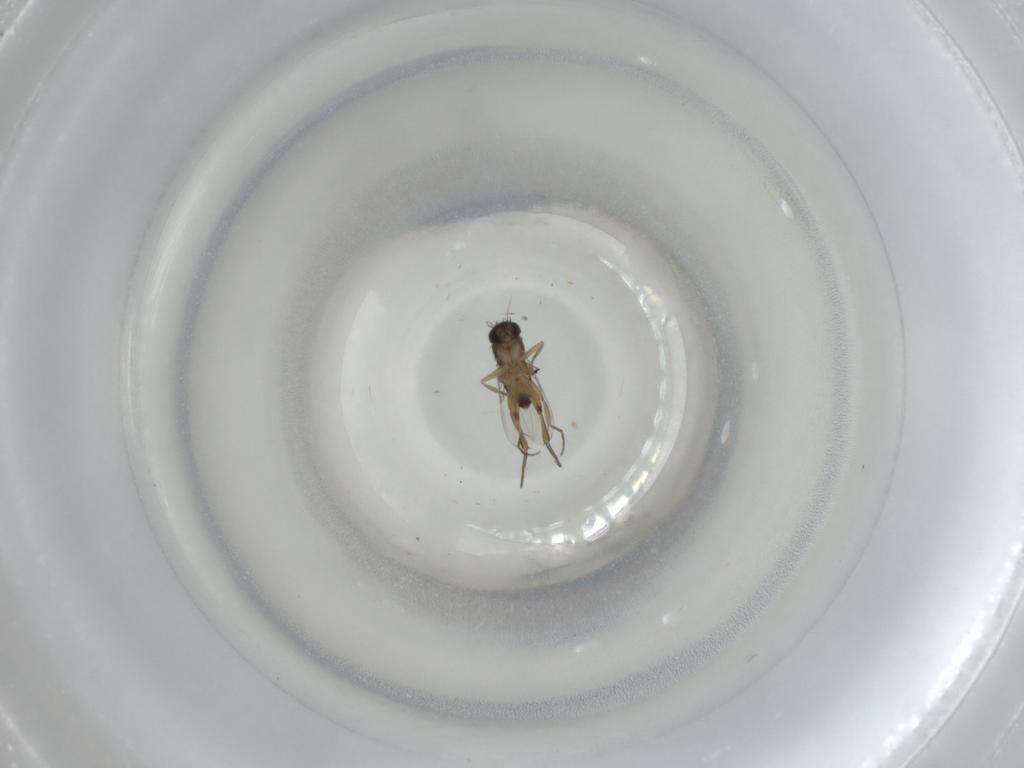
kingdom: Animalia
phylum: Arthropoda
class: Insecta
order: Diptera
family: Phoridae
